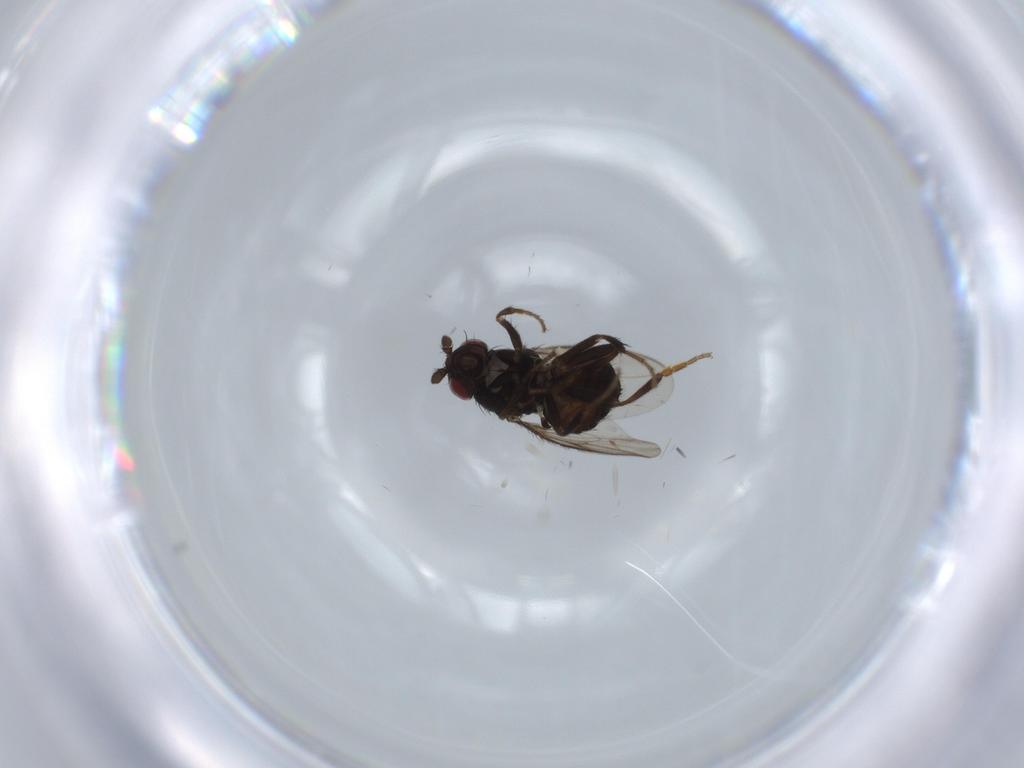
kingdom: Animalia
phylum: Arthropoda
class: Insecta
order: Diptera
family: Sphaeroceridae
